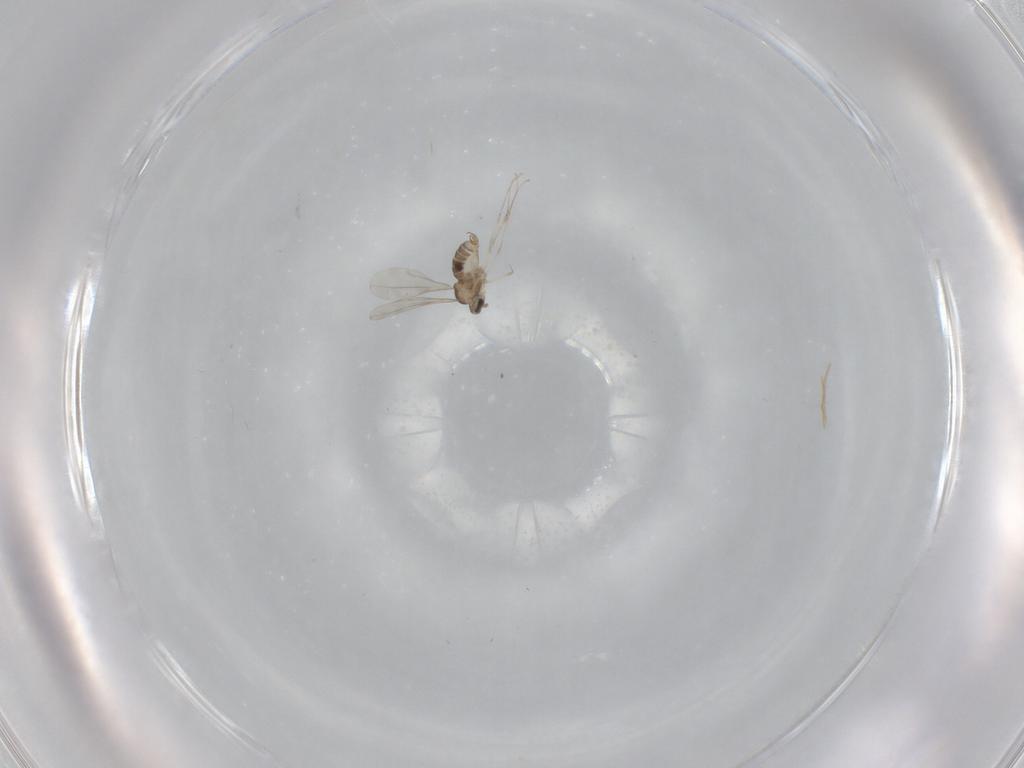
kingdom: Animalia
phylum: Arthropoda
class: Insecta
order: Diptera
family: Cecidomyiidae
